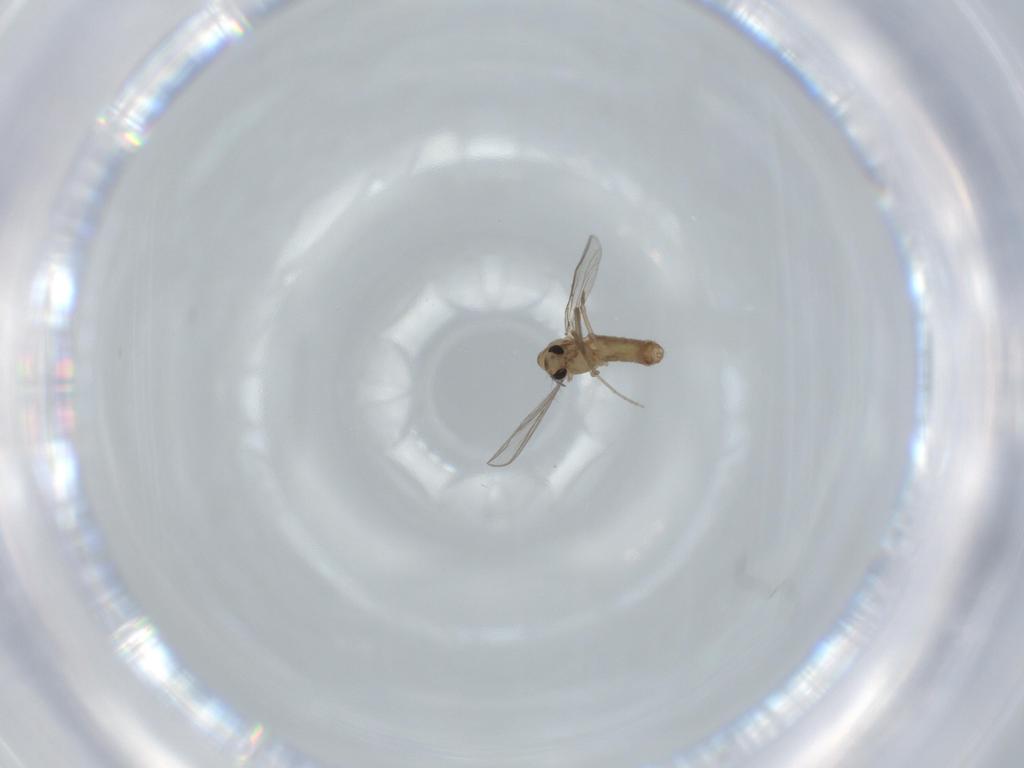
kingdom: Animalia
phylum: Arthropoda
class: Insecta
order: Diptera
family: Chironomidae
